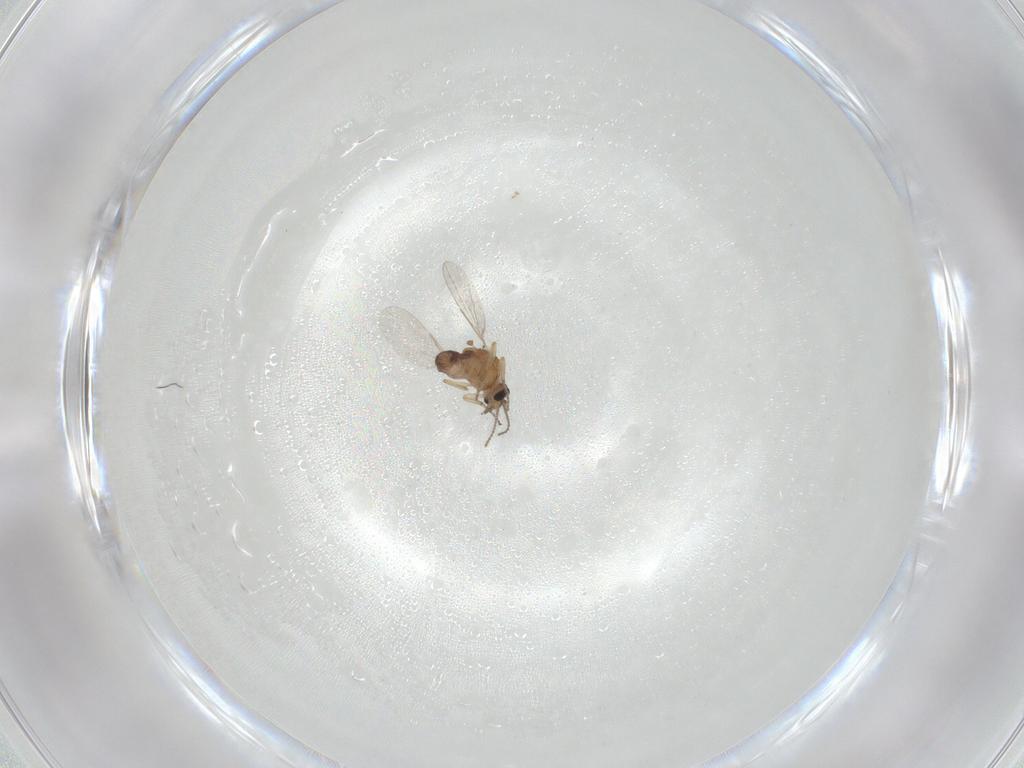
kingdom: Animalia
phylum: Arthropoda
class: Insecta
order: Diptera
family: Ceratopogonidae
